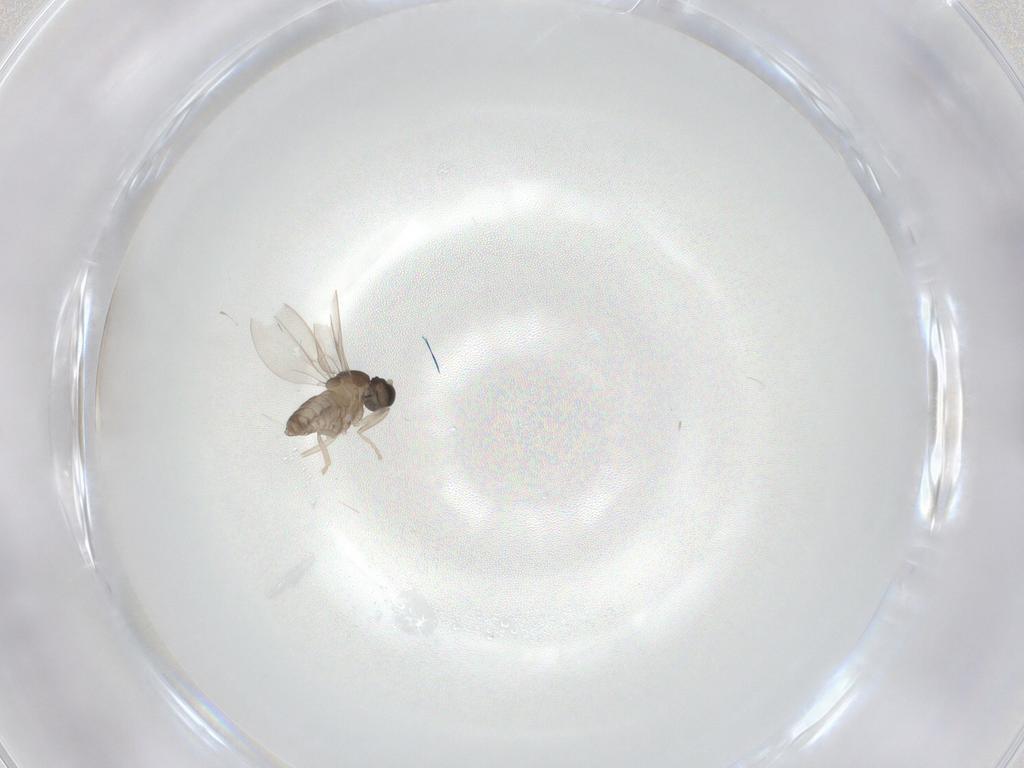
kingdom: Animalia
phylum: Arthropoda
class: Insecta
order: Diptera
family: Cecidomyiidae
